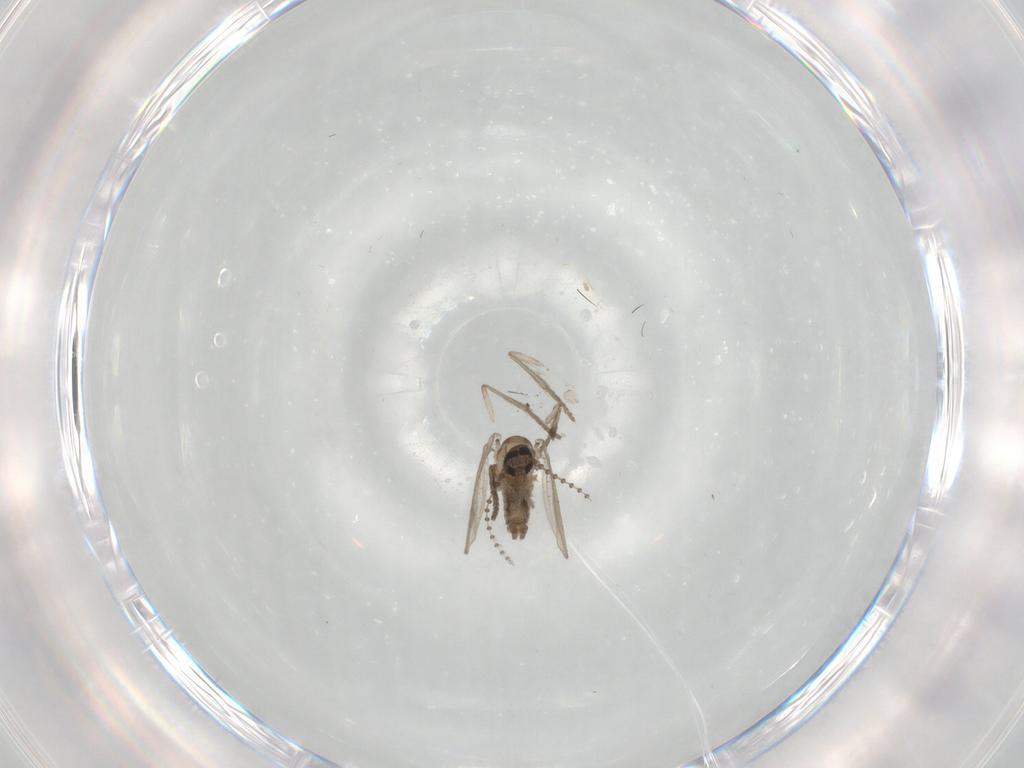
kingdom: Animalia
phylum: Arthropoda
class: Insecta
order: Diptera
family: Psychodidae
